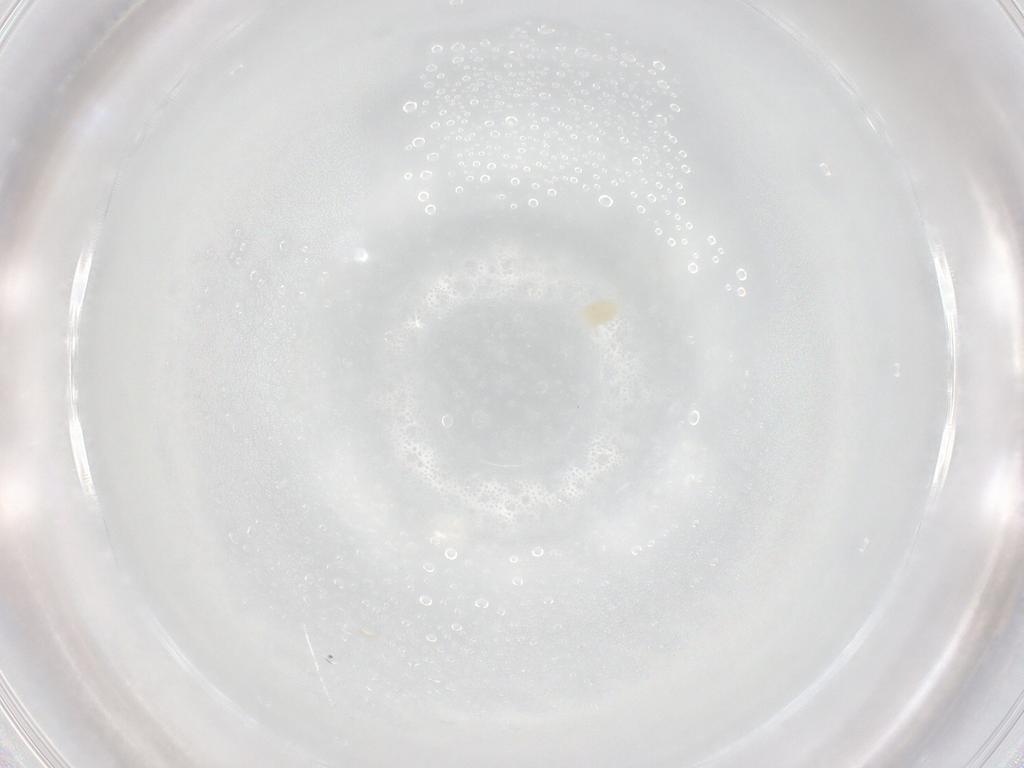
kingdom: Animalia
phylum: Arthropoda
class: Arachnida
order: Trombidiformes
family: Eupodidae
